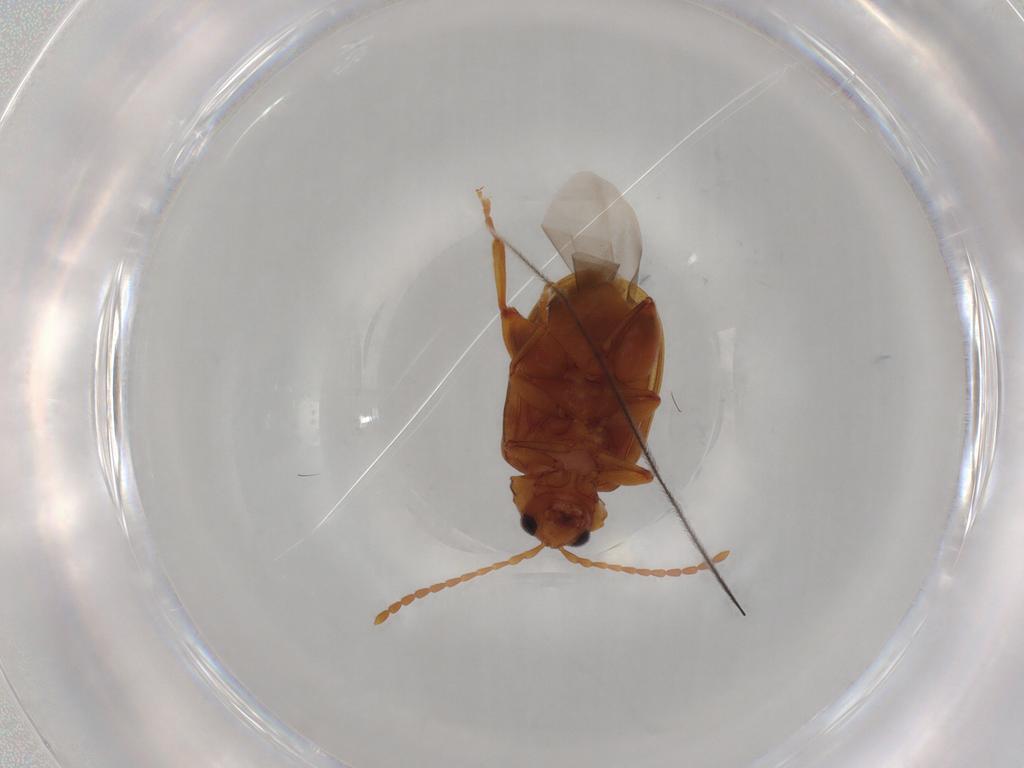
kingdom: Animalia
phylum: Arthropoda
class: Insecta
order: Coleoptera
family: Chrysomelidae
